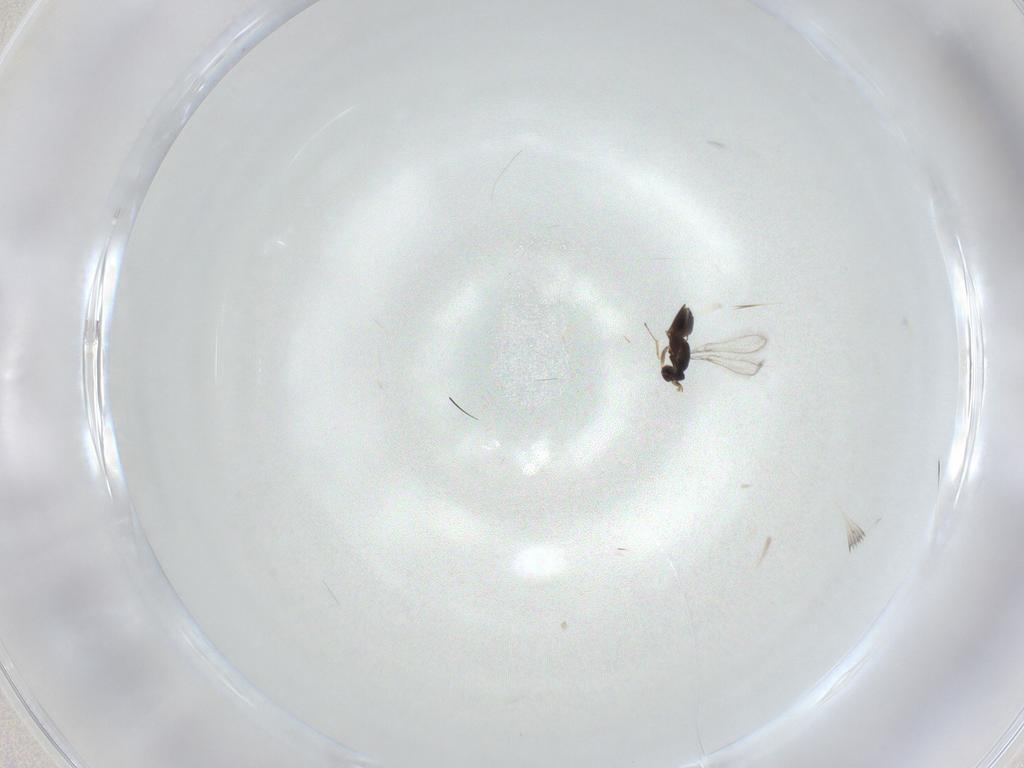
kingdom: Animalia
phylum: Arthropoda
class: Insecta
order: Hymenoptera
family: Mymaridae
